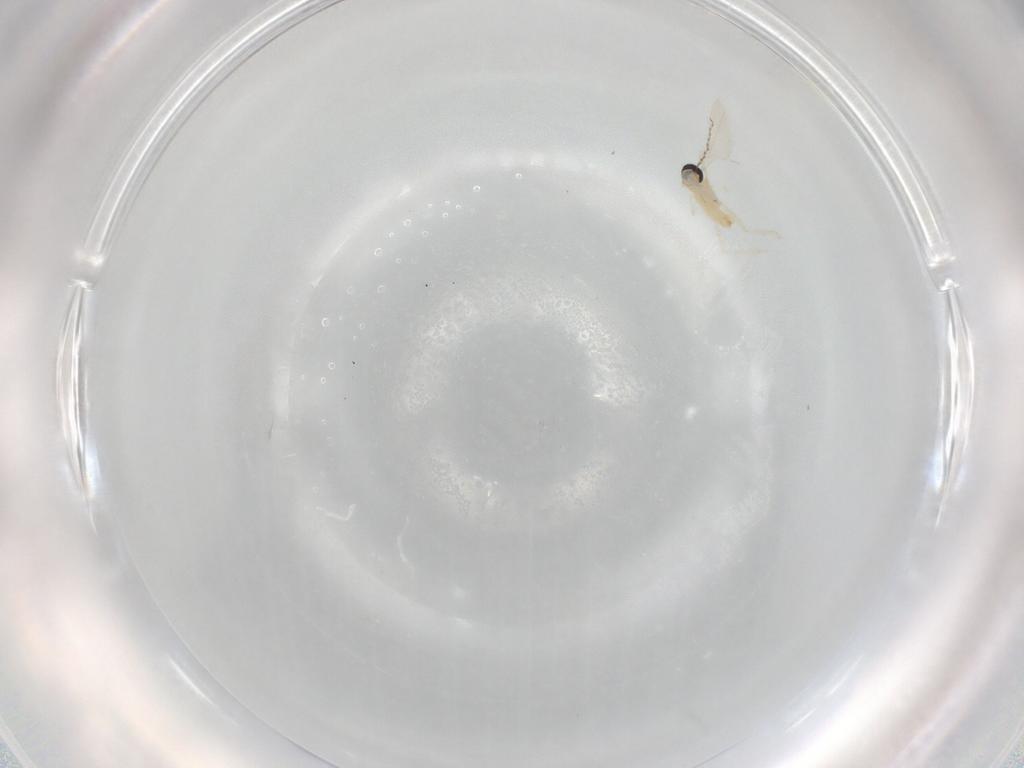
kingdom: Animalia
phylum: Arthropoda
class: Insecta
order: Diptera
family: Cecidomyiidae
